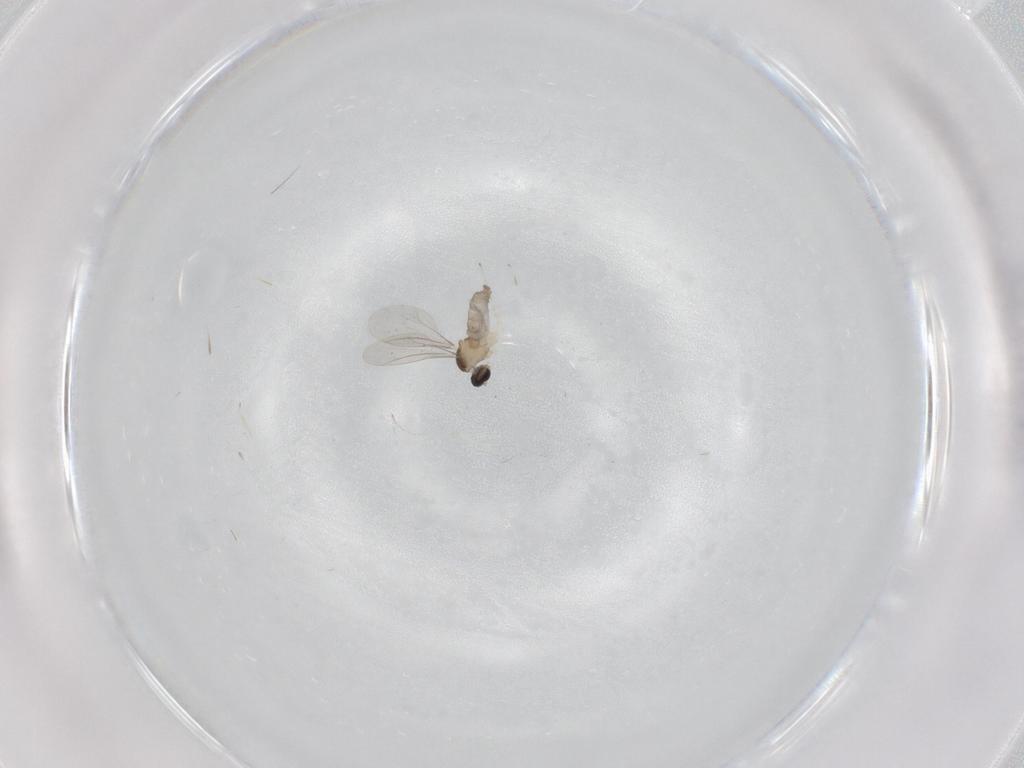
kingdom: Animalia
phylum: Arthropoda
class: Insecta
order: Diptera
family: Cecidomyiidae
